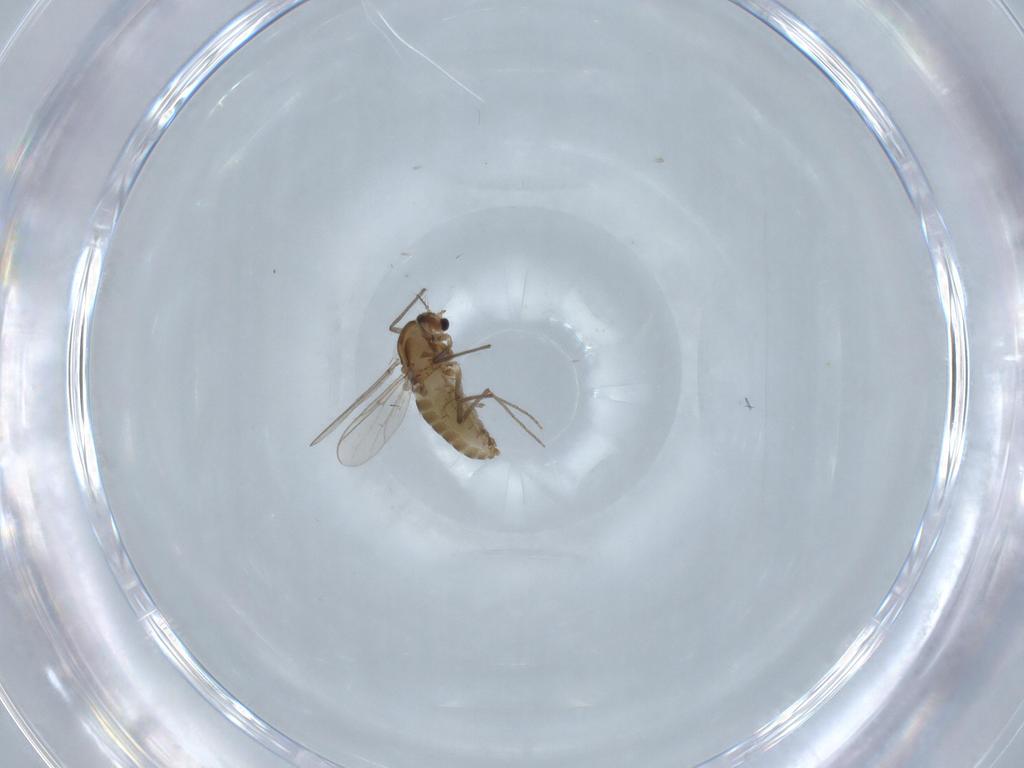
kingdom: Animalia
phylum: Arthropoda
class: Insecta
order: Diptera
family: Chironomidae
